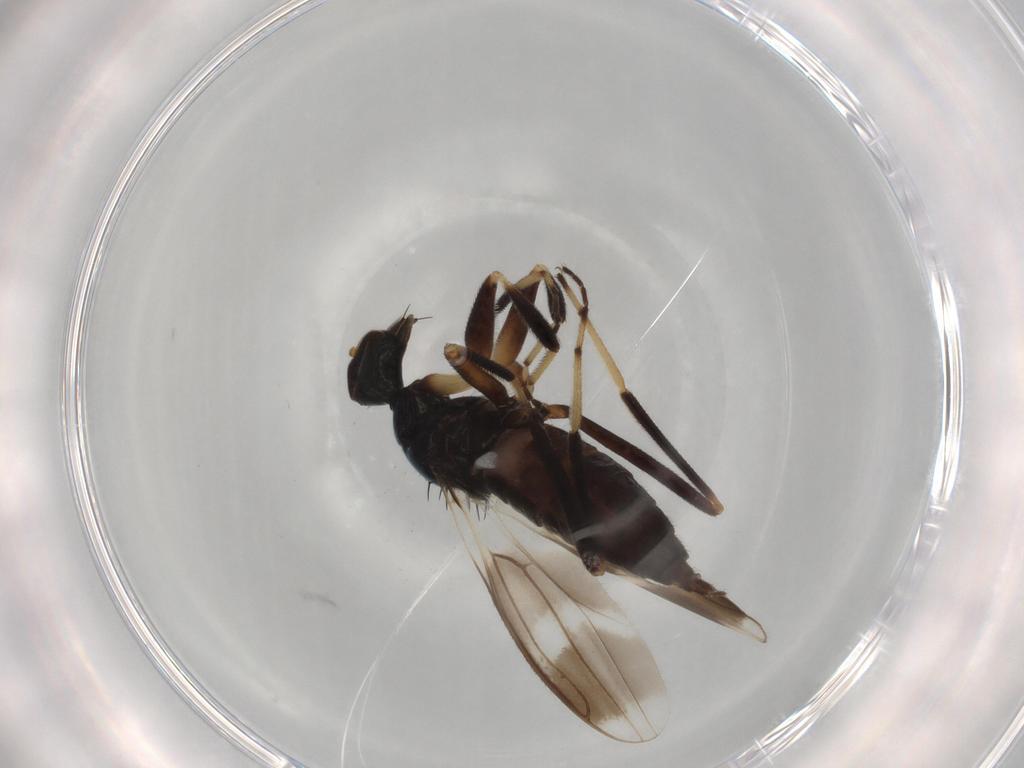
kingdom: Animalia
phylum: Arthropoda
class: Insecta
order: Diptera
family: Hybotidae
